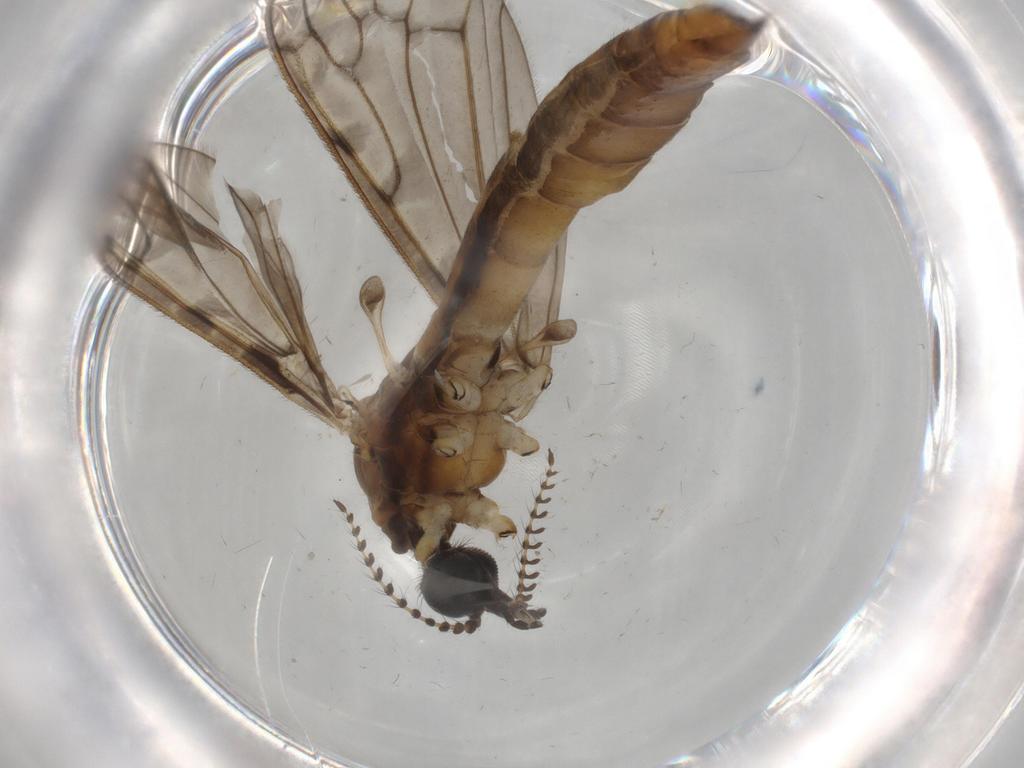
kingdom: Animalia
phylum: Arthropoda
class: Insecta
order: Diptera
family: Limoniidae
